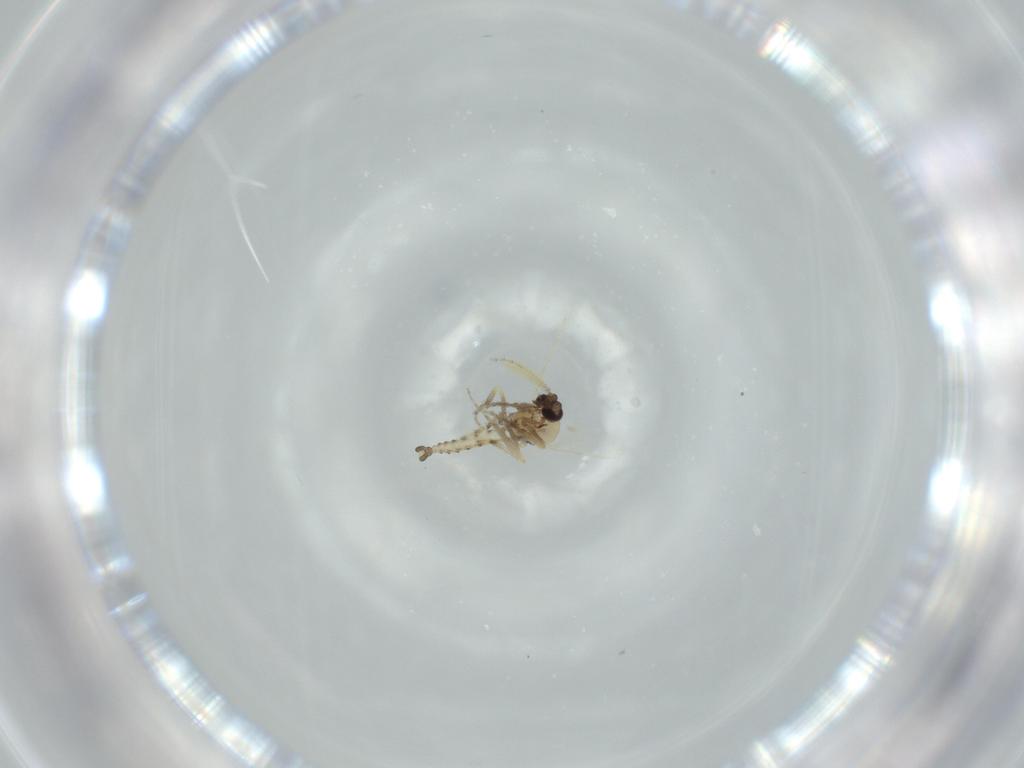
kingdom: Animalia
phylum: Arthropoda
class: Insecta
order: Diptera
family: Ceratopogonidae
